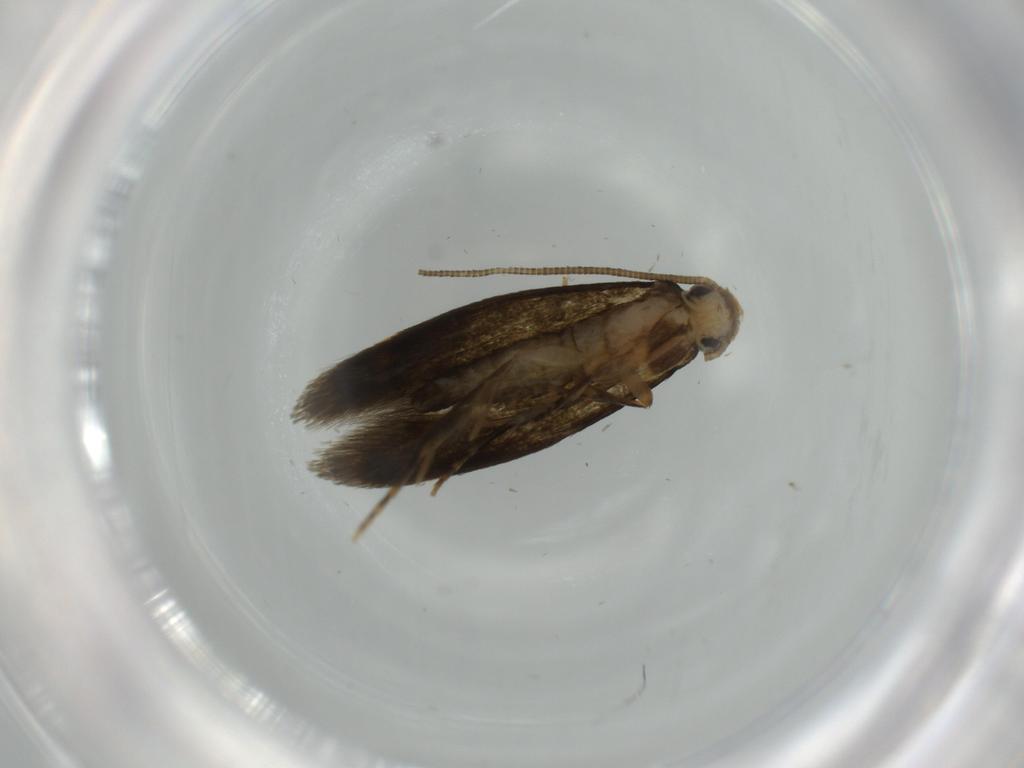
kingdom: Animalia
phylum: Arthropoda
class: Insecta
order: Lepidoptera
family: Tineidae
